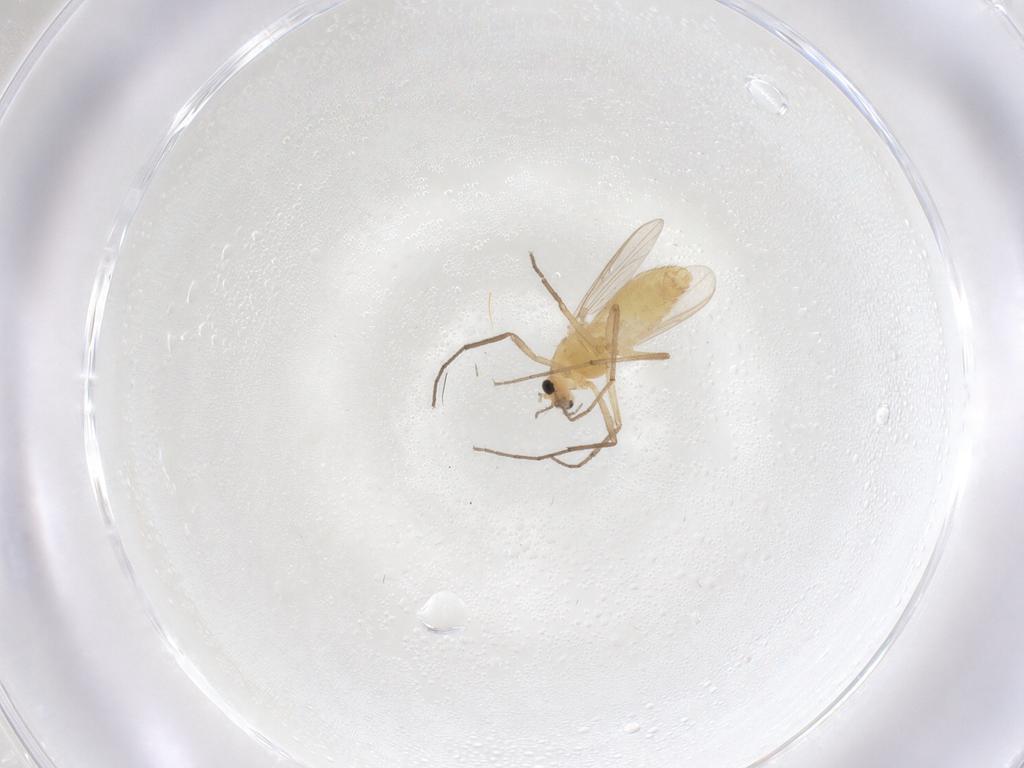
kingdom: Animalia
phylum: Arthropoda
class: Insecta
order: Diptera
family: Chironomidae
